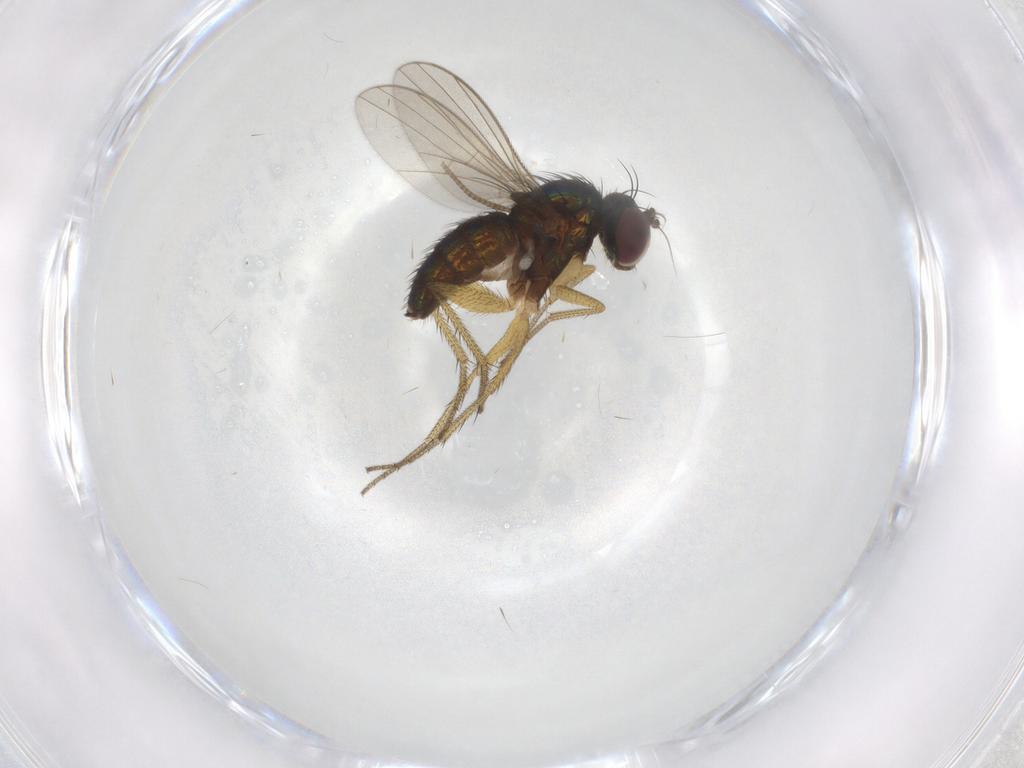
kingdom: Animalia
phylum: Arthropoda
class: Insecta
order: Diptera
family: Dolichopodidae
